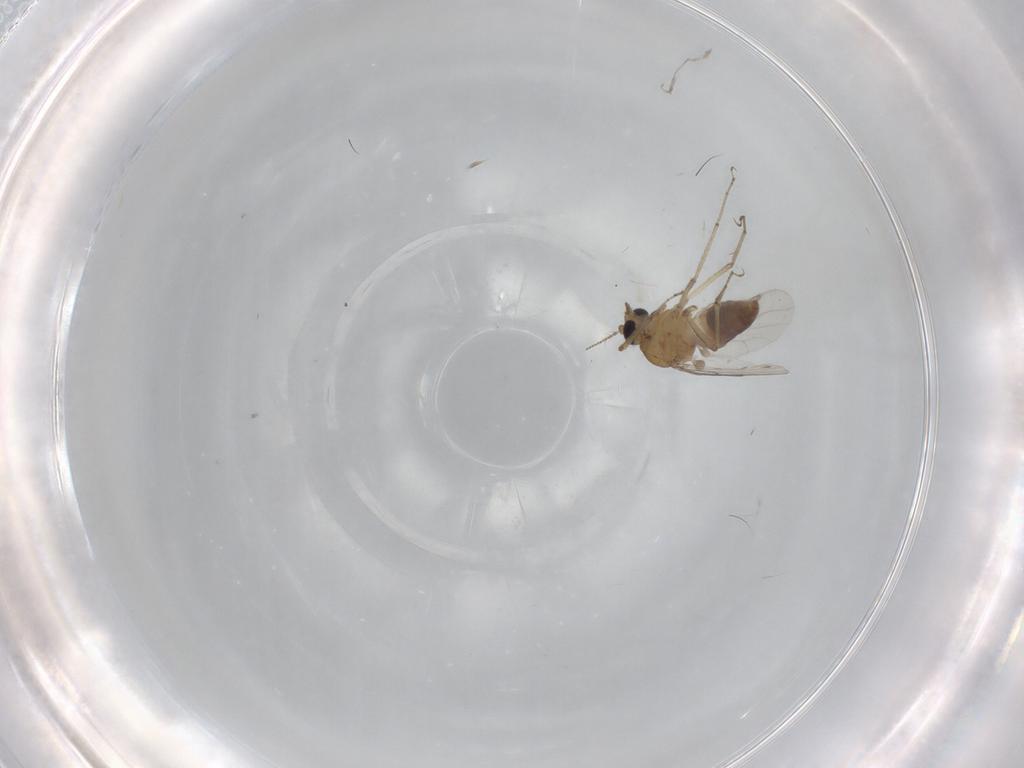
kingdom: Animalia
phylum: Arthropoda
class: Insecta
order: Diptera
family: Ceratopogonidae
